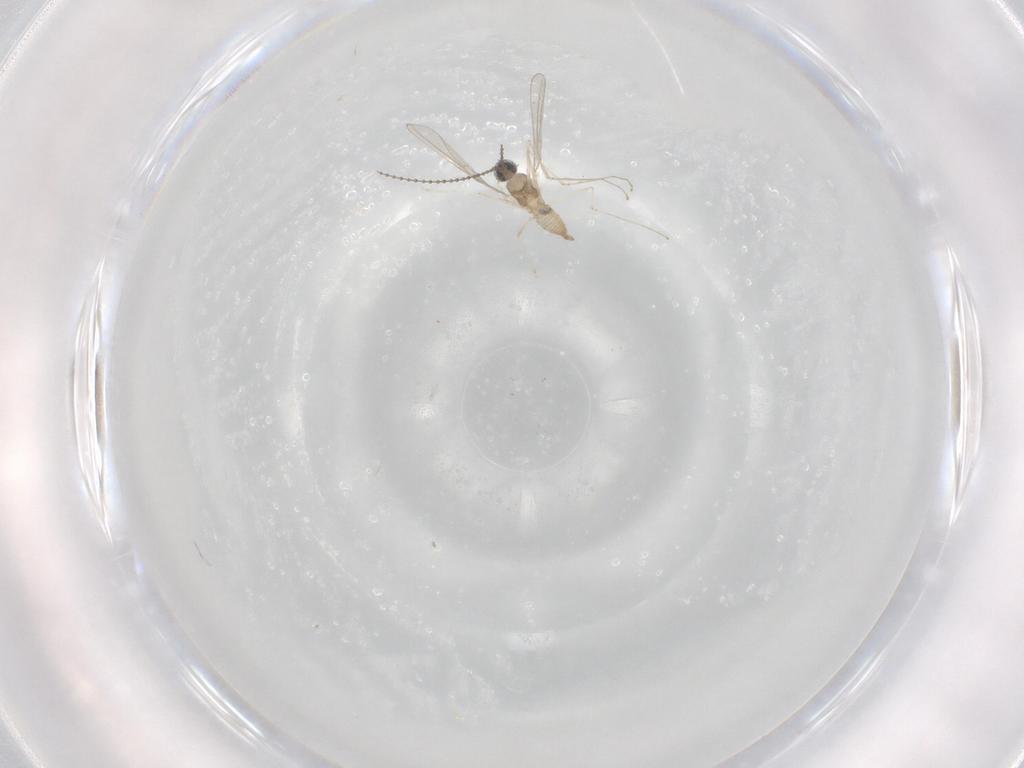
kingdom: Animalia
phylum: Arthropoda
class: Insecta
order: Diptera
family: Cecidomyiidae
